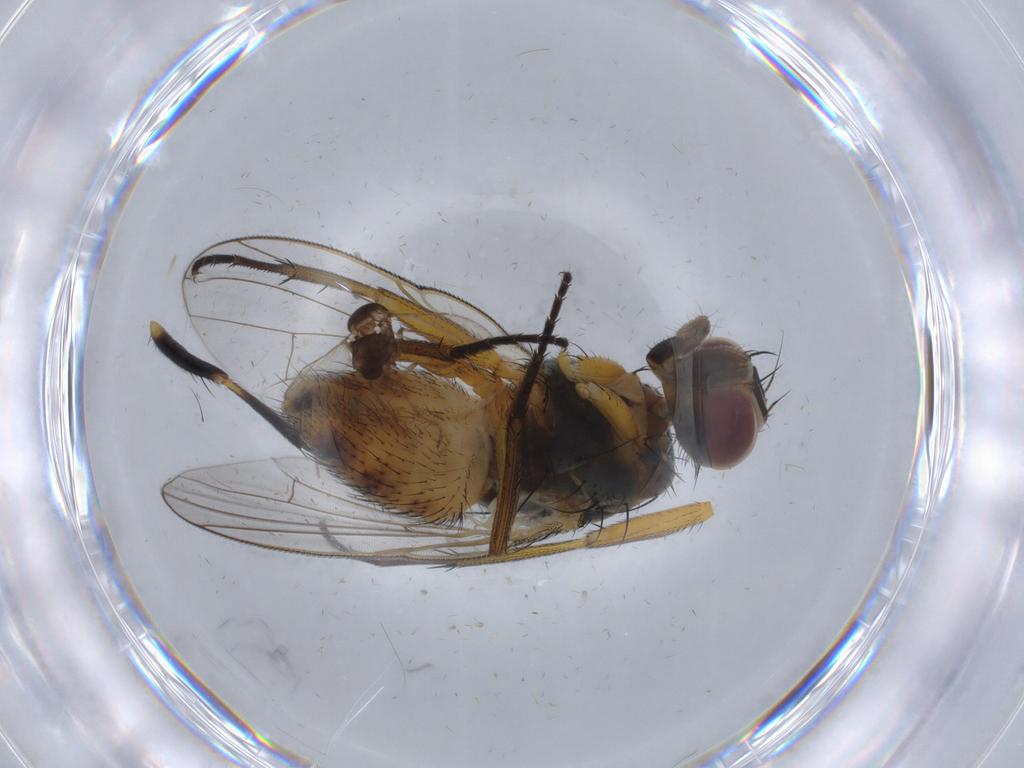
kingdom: Animalia
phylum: Arthropoda
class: Insecta
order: Diptera
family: Muscidae
